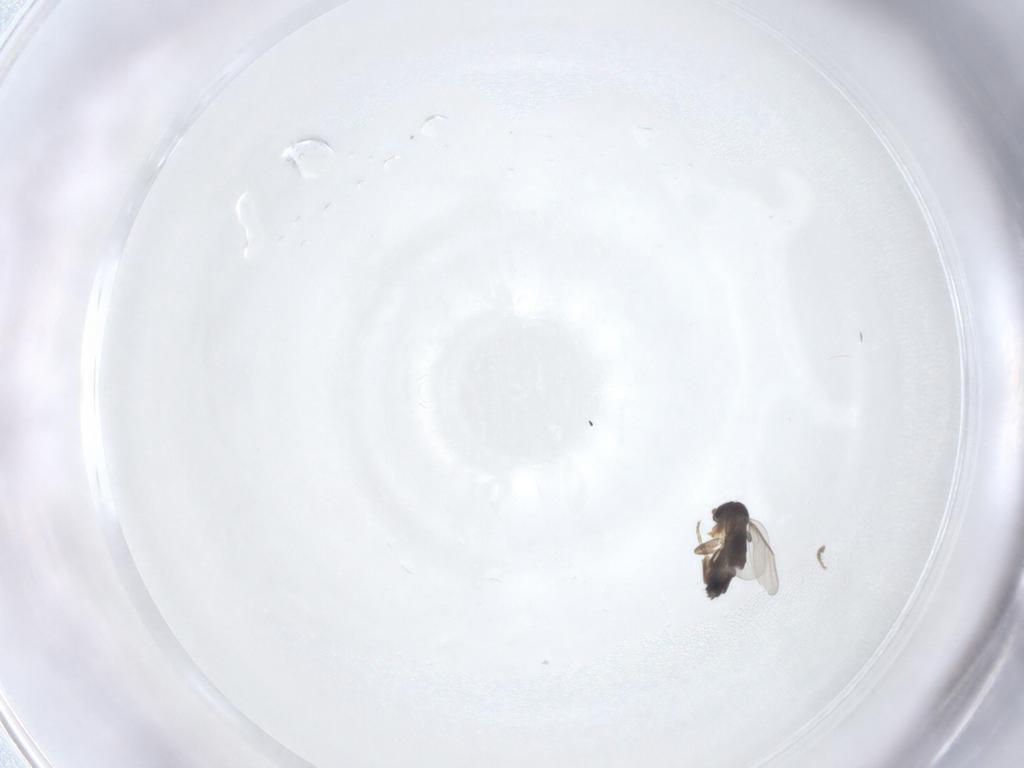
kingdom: Animalia
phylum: Arthropoda
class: Insecta
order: Diptera
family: Phoridae
